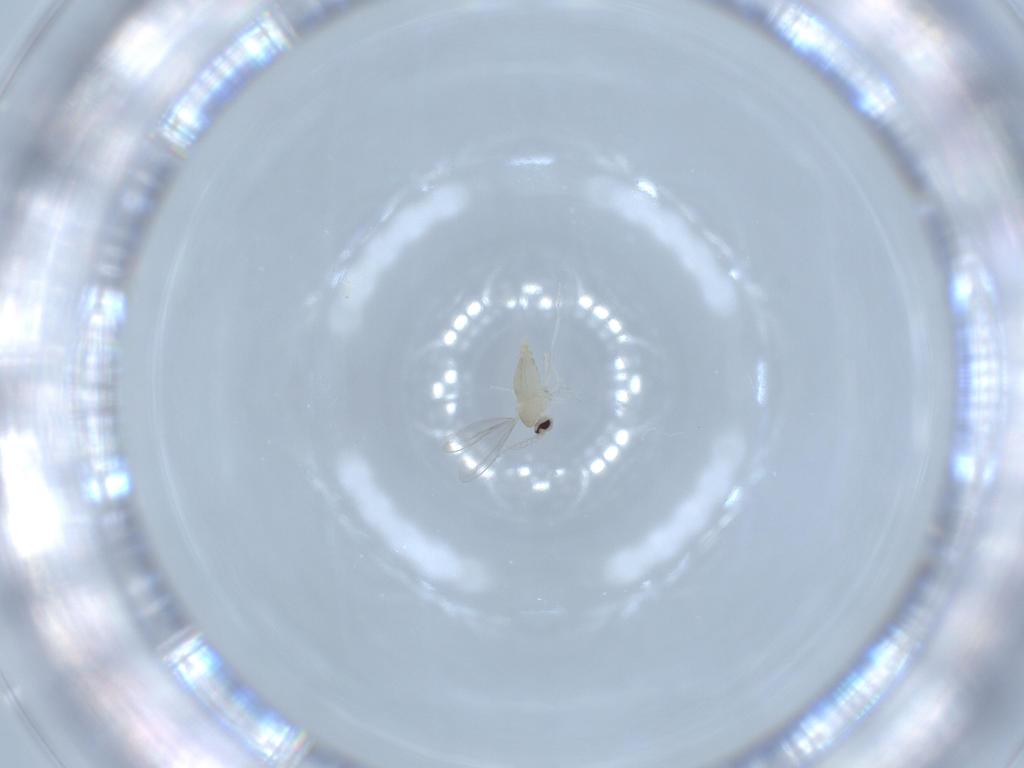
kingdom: Animalia
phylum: Arthropoda
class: Insecta
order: Diptera
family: Cecidomyiidae
